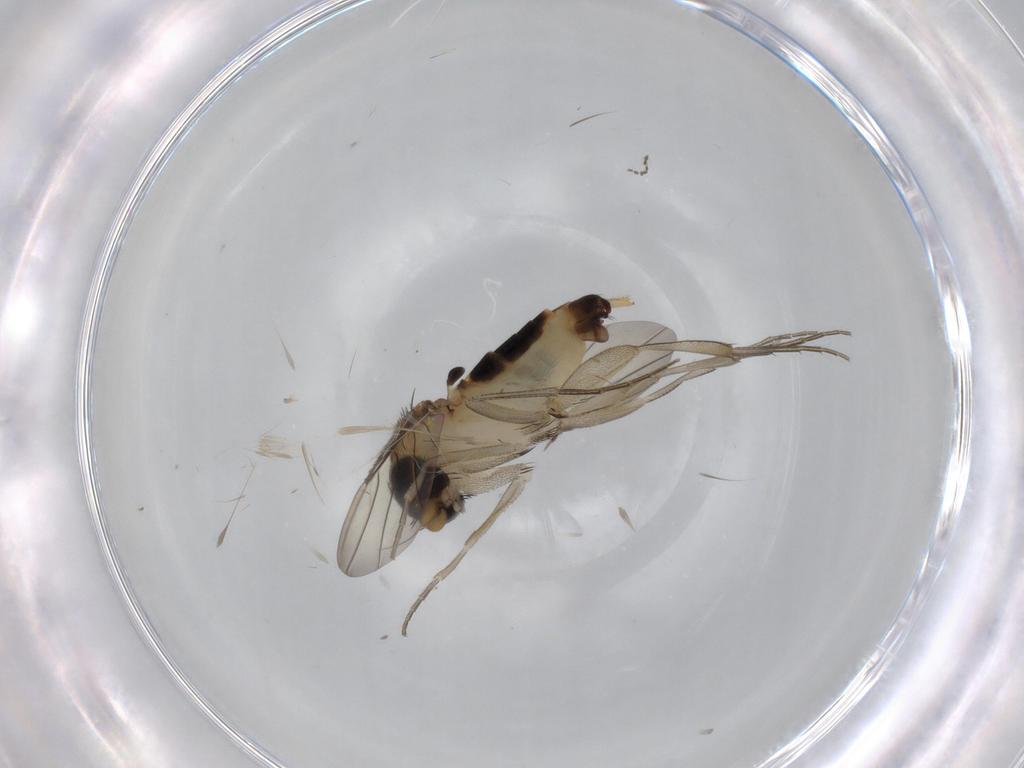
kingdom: Animalia
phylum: Arthropoda
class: Insecta
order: Diptera
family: Phoridae
